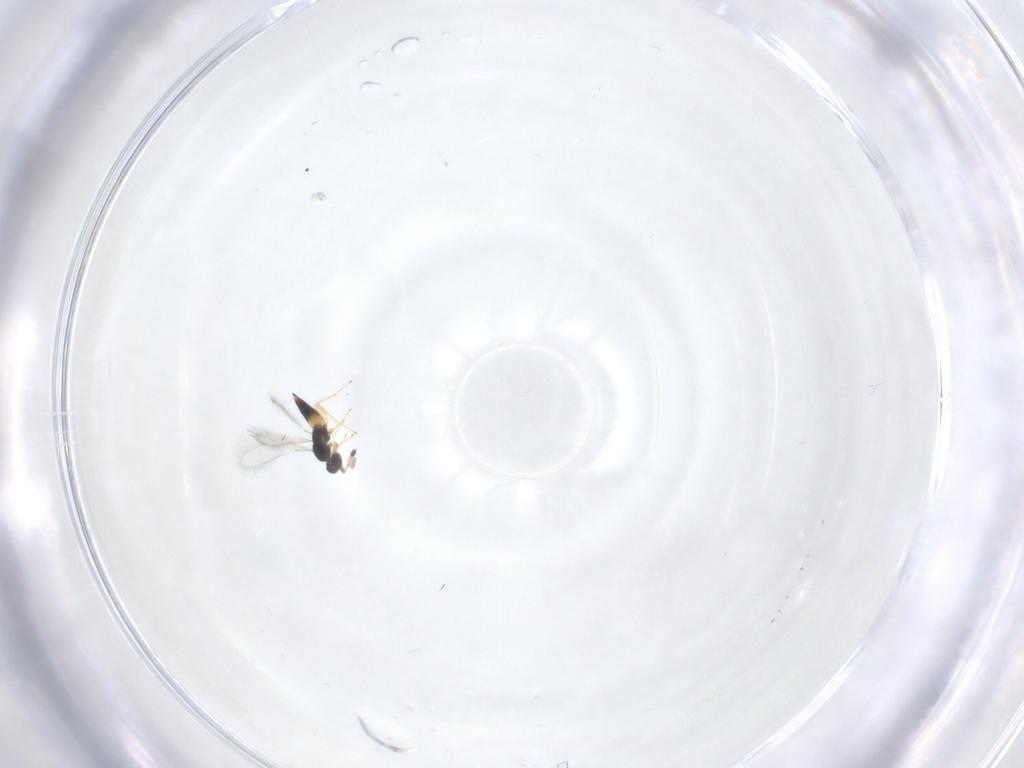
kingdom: Animalia
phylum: Arthropoda
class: Insecta
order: Hymenoptera
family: Mymaridae
